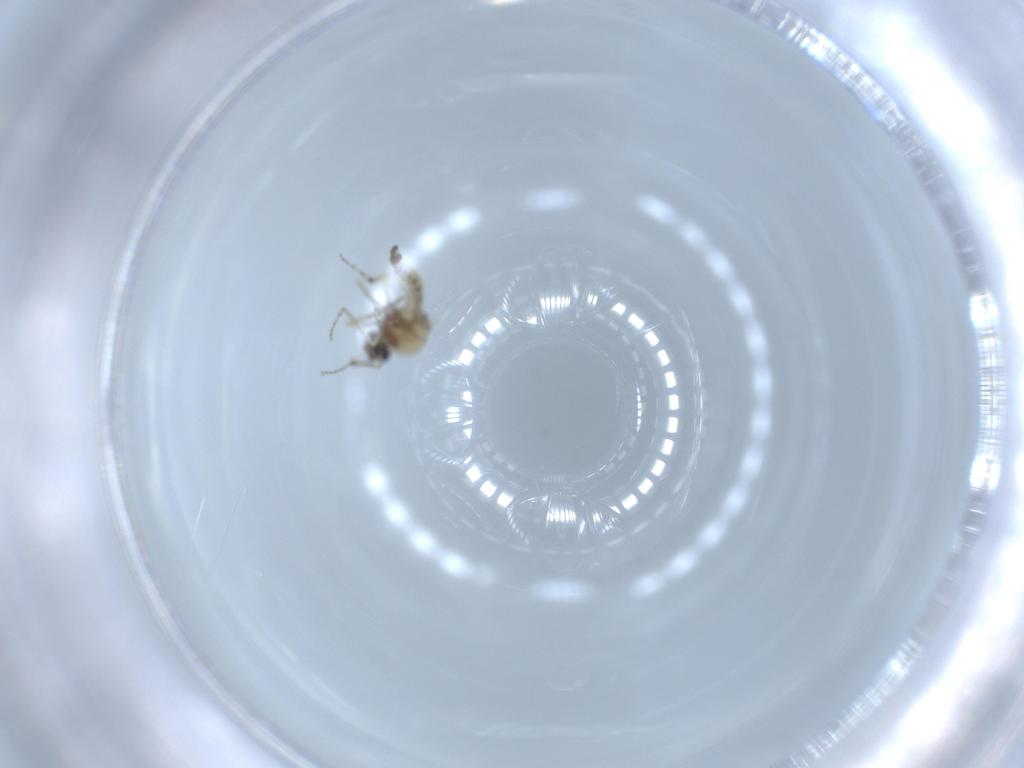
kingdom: Animalia
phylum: Arthropoda
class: Insecta
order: Diptera
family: Ceratopogonidae
